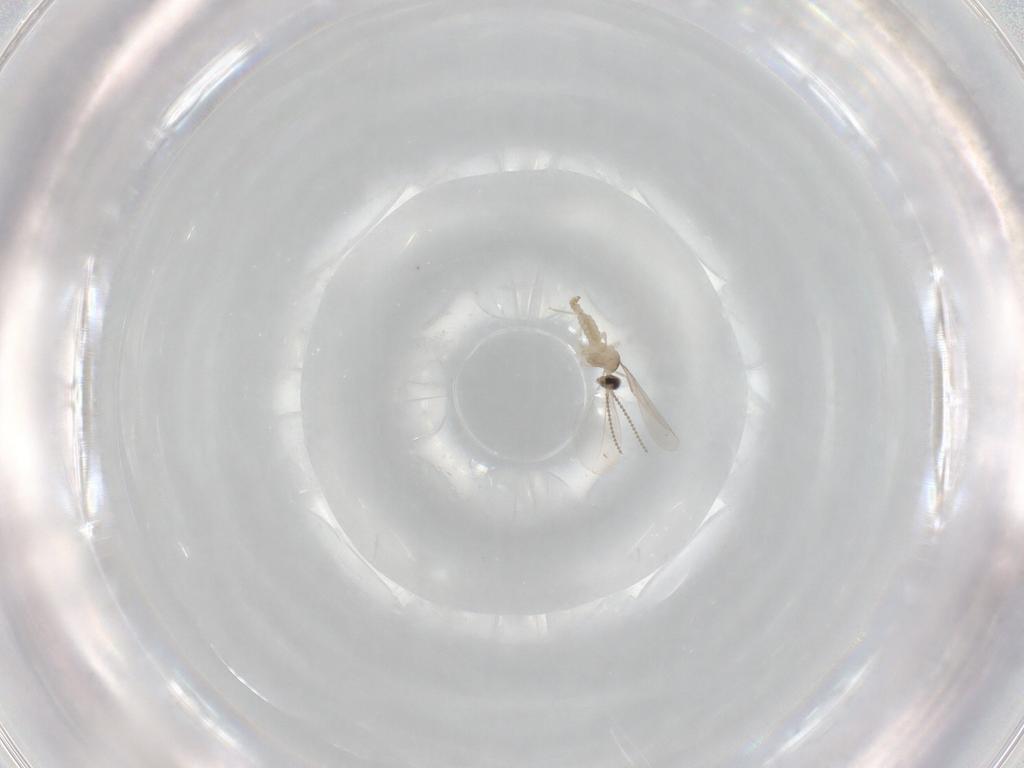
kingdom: Animalia
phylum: Arthropoda
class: Insecta
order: Diptera
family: Cecidomyiidae
